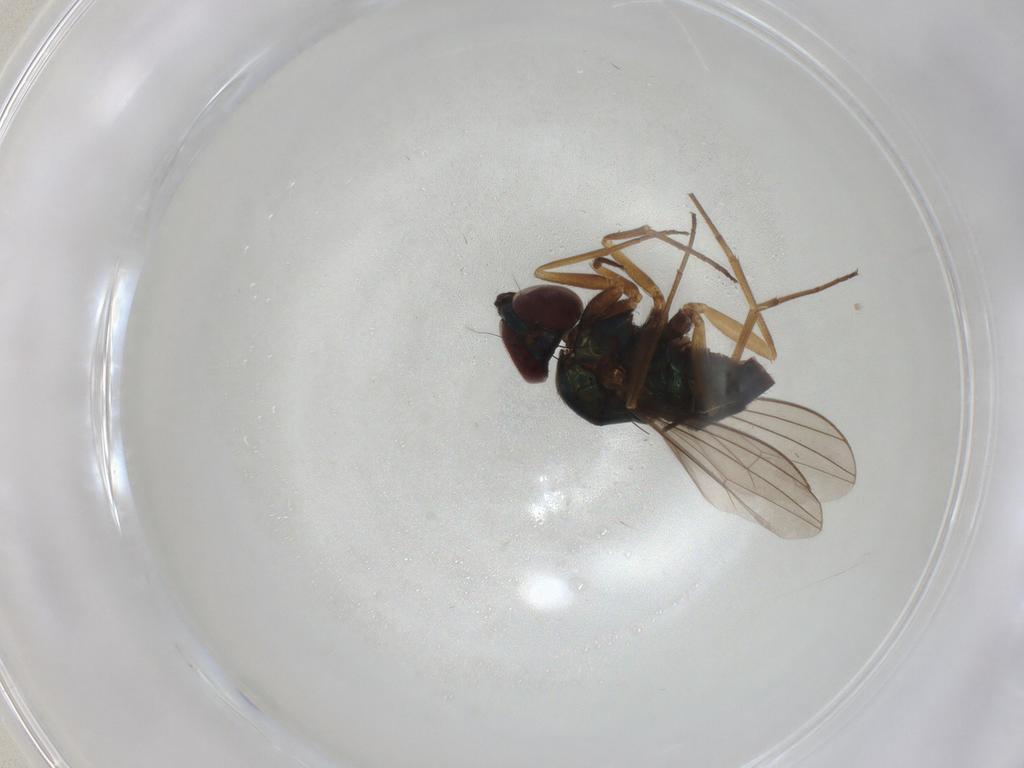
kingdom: Animalia
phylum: Arthropoda
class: Insecta
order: Diptera
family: Dolichopodidae
